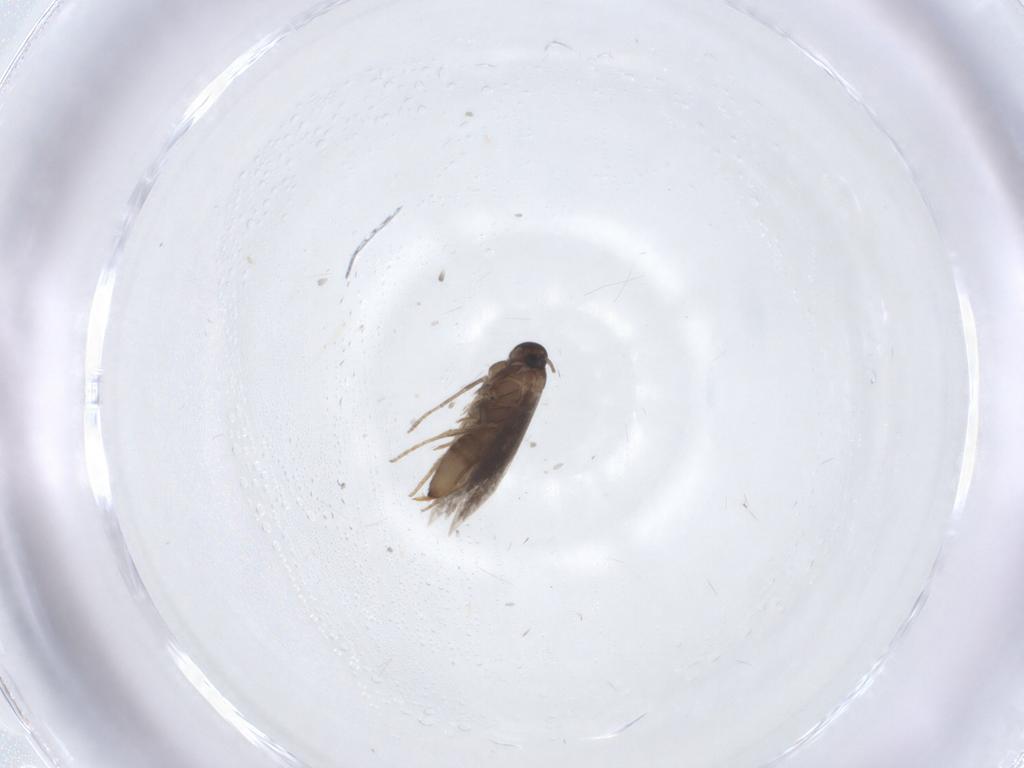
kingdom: Animalia
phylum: Arthropoda
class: Insecta
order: Lepidoptera
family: Heliozelidae
